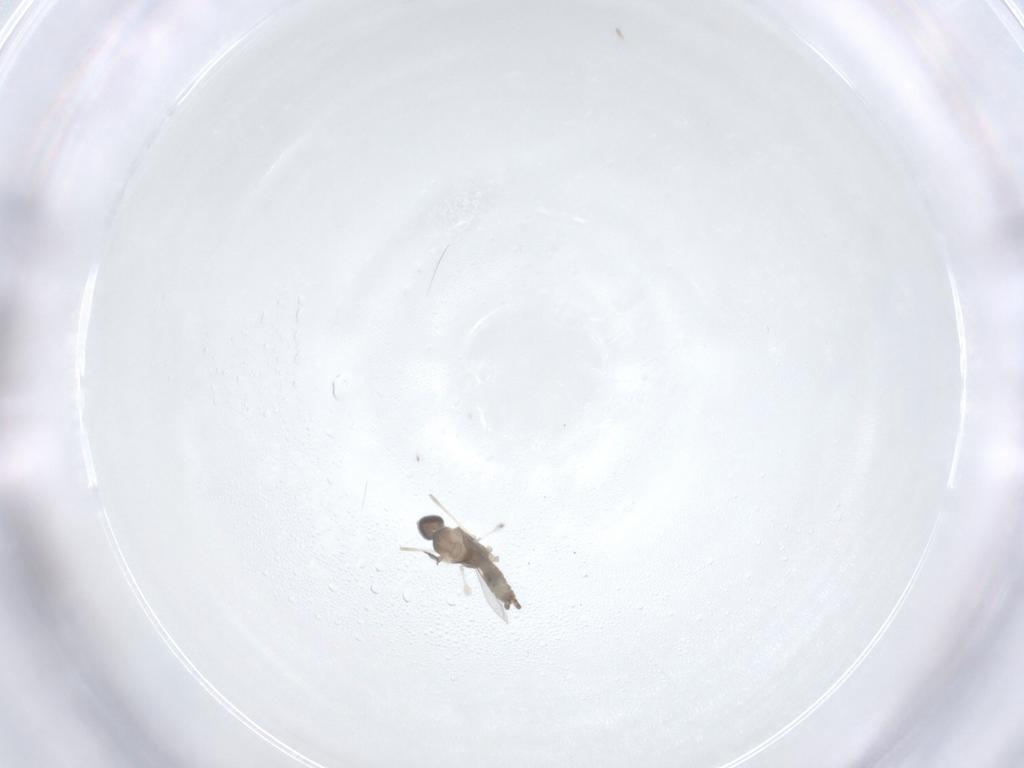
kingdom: Animalia
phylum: Arthropoda
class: Insecta
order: Diptera
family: Cecidomyiidae
